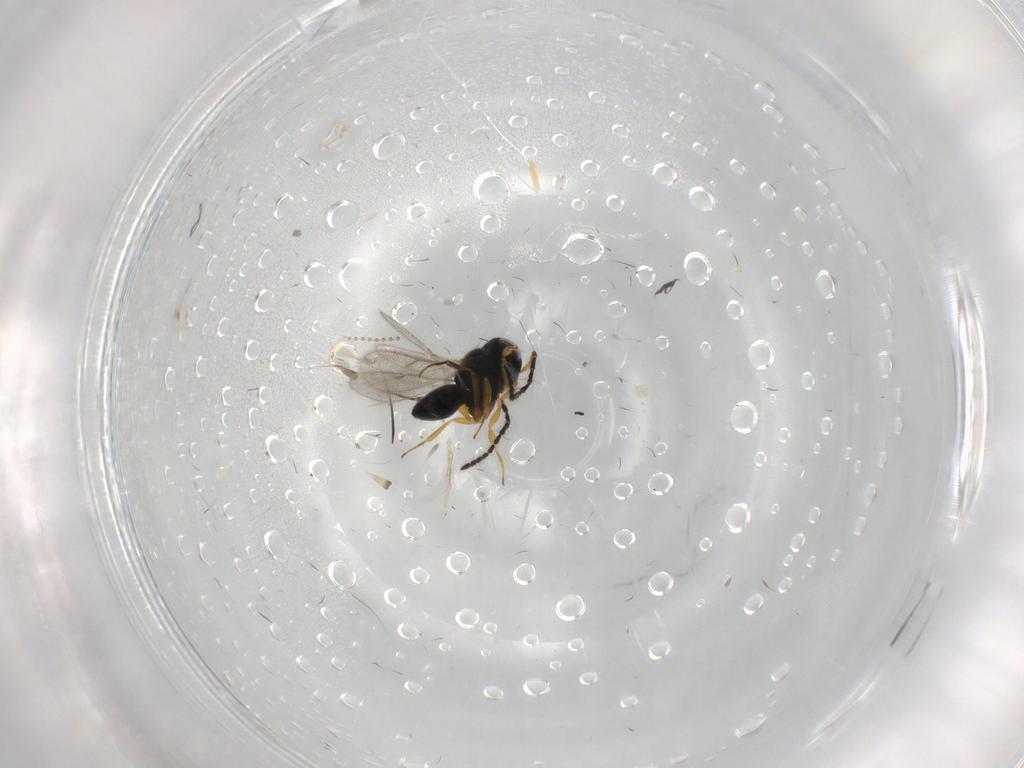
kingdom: Animalia
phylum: Arthropoda
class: Insecta
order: Hymenoptera
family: Scelionidae
